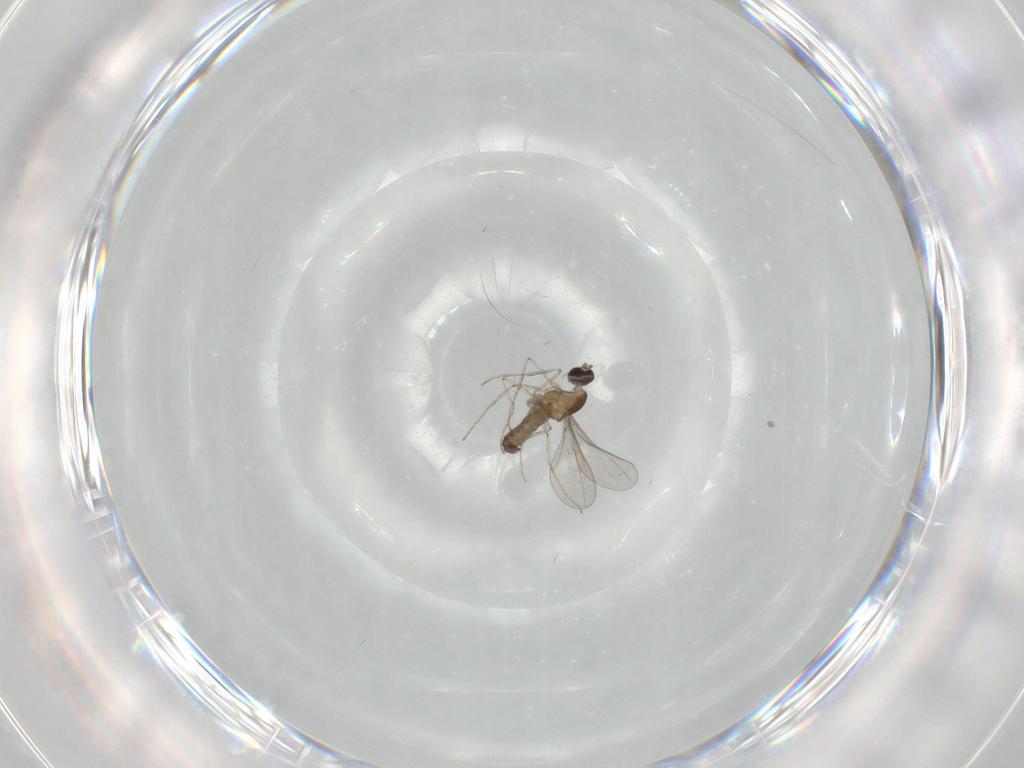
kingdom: Animalia
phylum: Arthropoda
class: Insecta
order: Diptera
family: Cecidomyiidae
